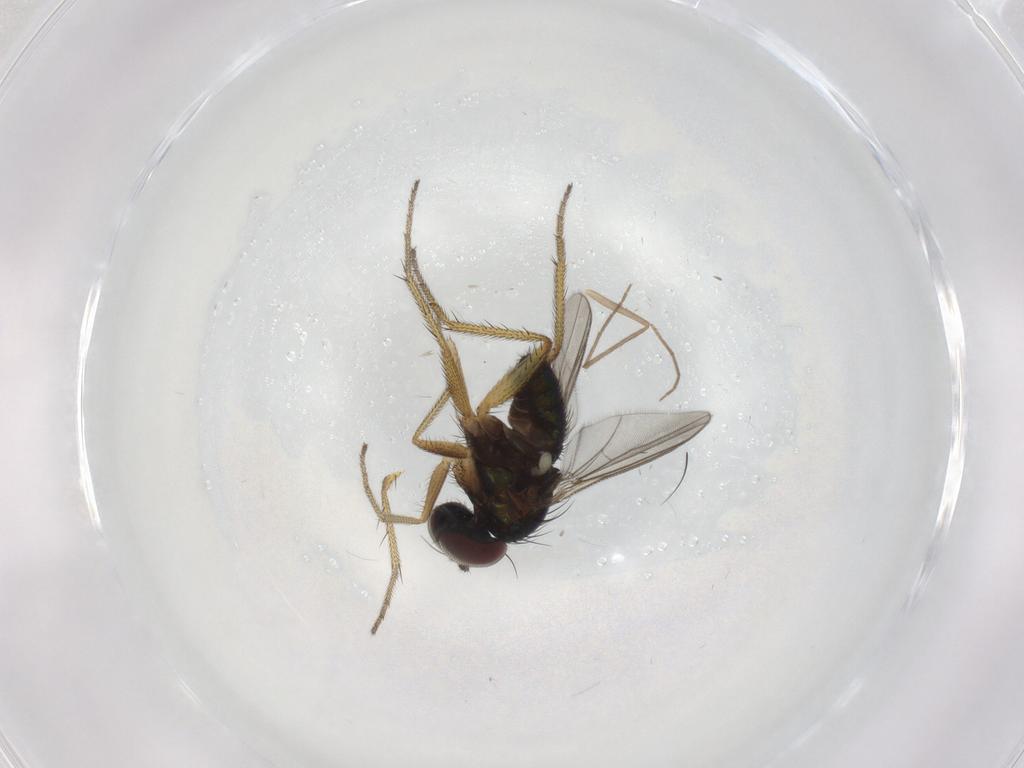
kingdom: Animalia
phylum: Arthropoda
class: Insecta
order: Diptera
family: Chironomidae
